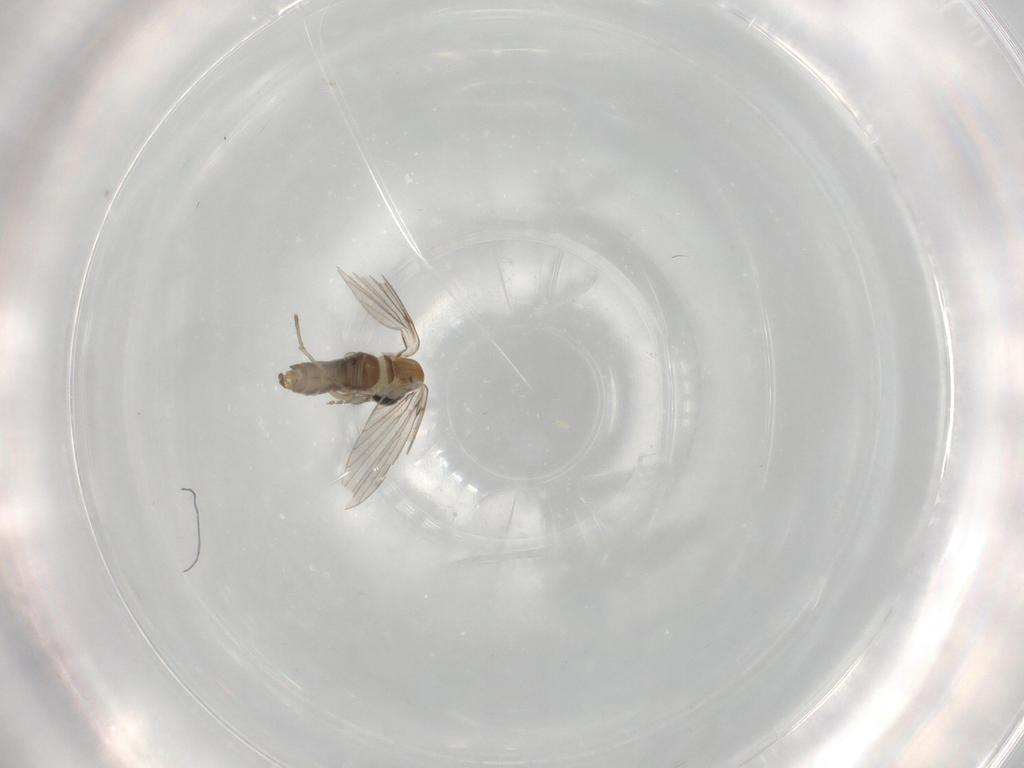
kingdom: Animalia
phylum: Arthropoda
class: Insecta
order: Diptera
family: Psychodidae
